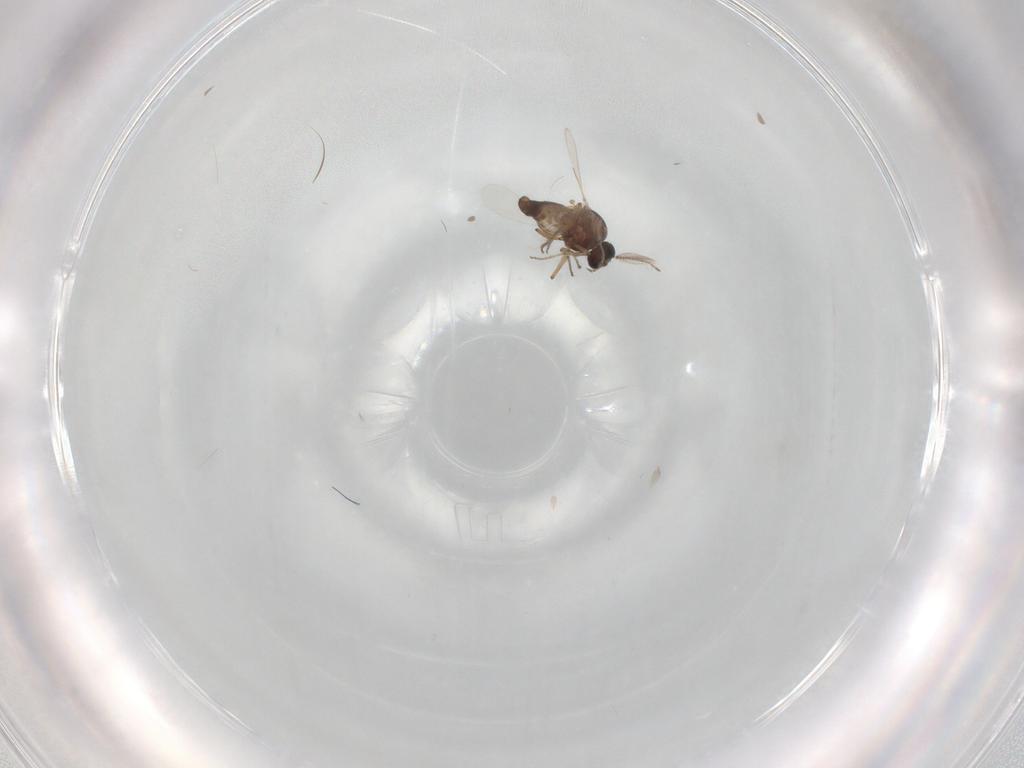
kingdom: Animalia
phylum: Arthropoda
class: Insecta
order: Diptera
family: Ceratopogonidae
